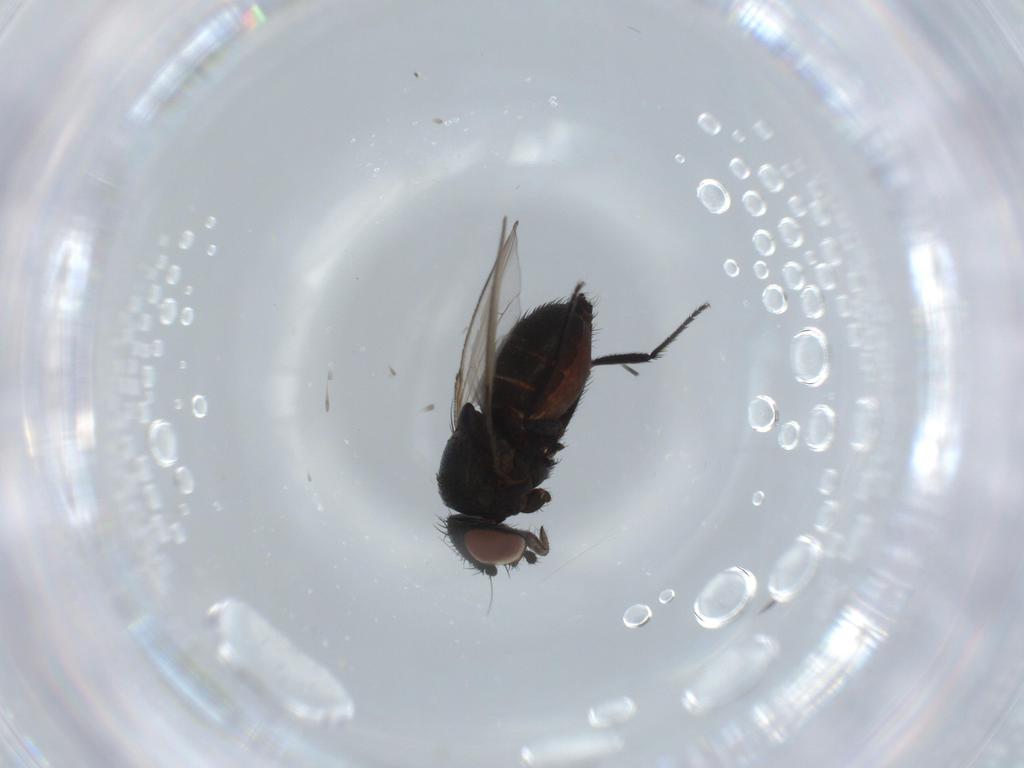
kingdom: Animalia
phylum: Arthropoda
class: Insecta
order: Diptera
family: Milichiidae
